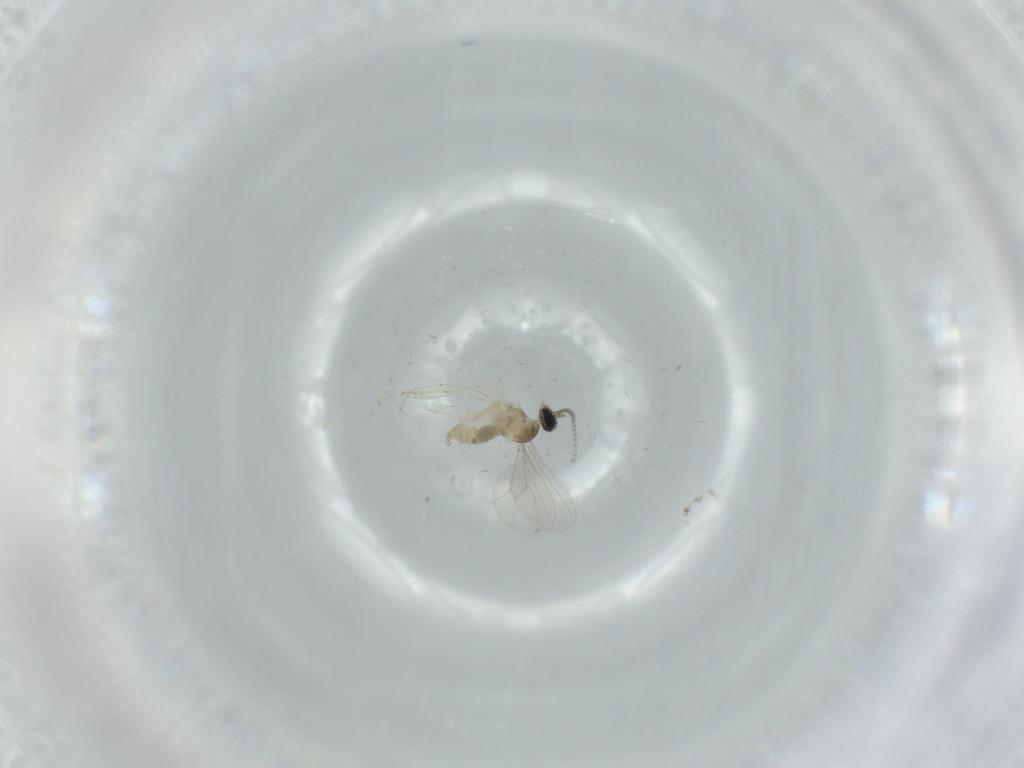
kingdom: Animalia
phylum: Arthropoda
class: Insecta
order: Diptera
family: Cecidomyiidae
